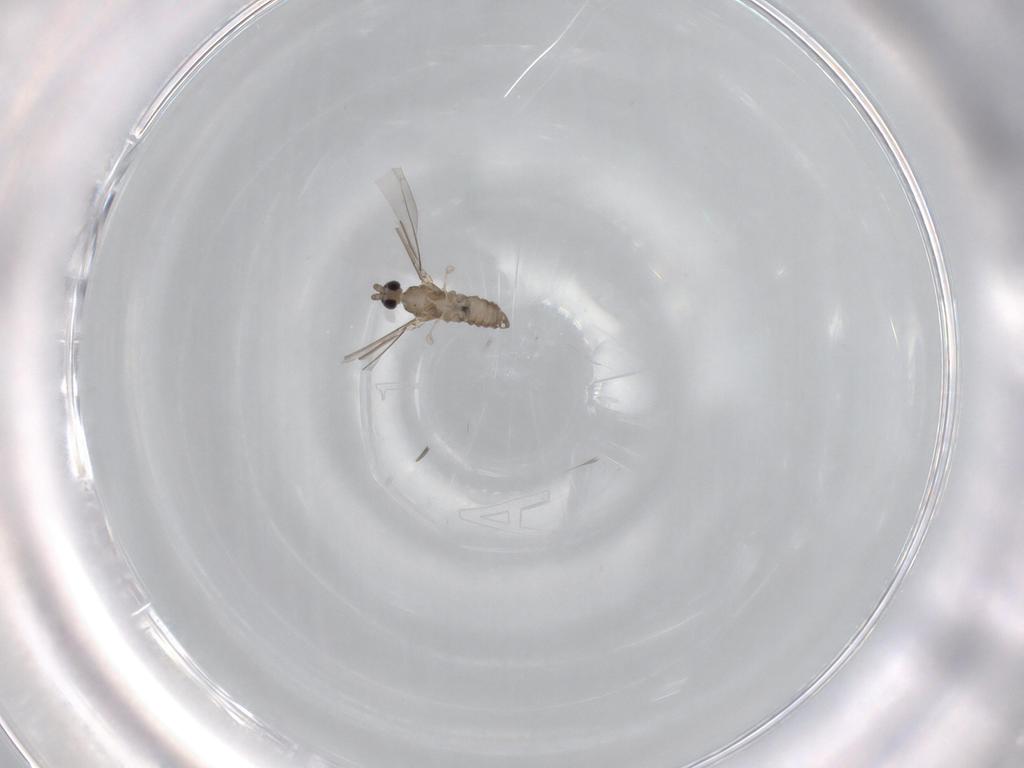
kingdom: Animalia
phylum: Arthropoda
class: Insecta
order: Diptera
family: Cecidomyiidae
